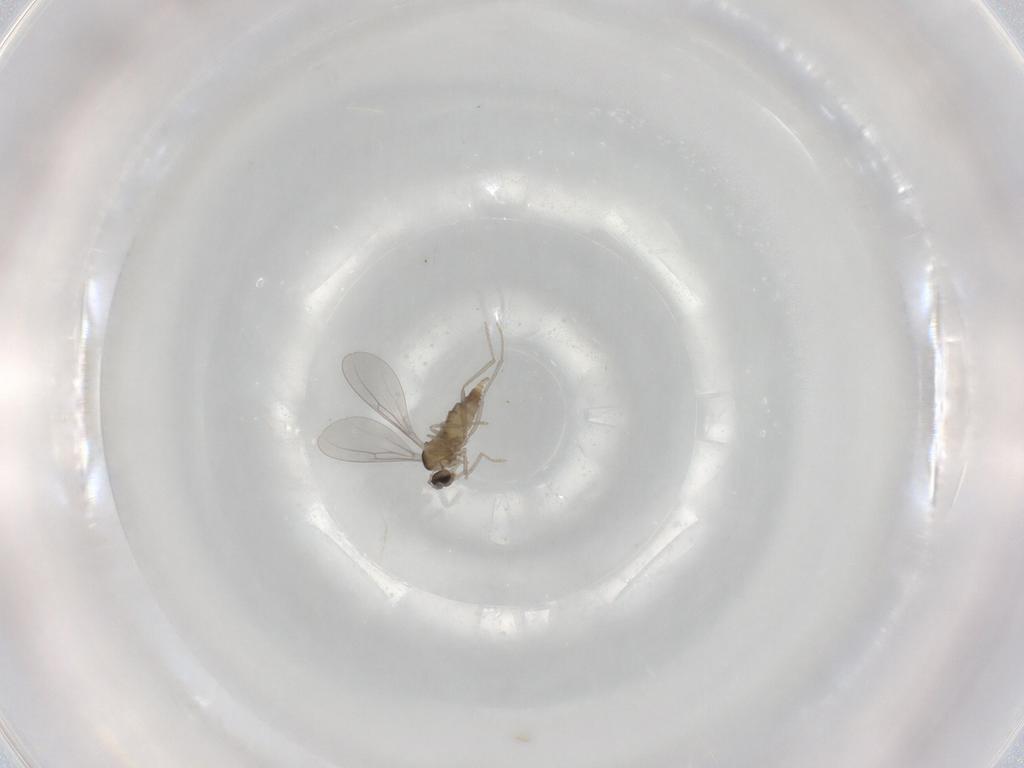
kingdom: Animalia
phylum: Arthropoda
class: Insecta
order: Diptera
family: Cecidomyiidae
